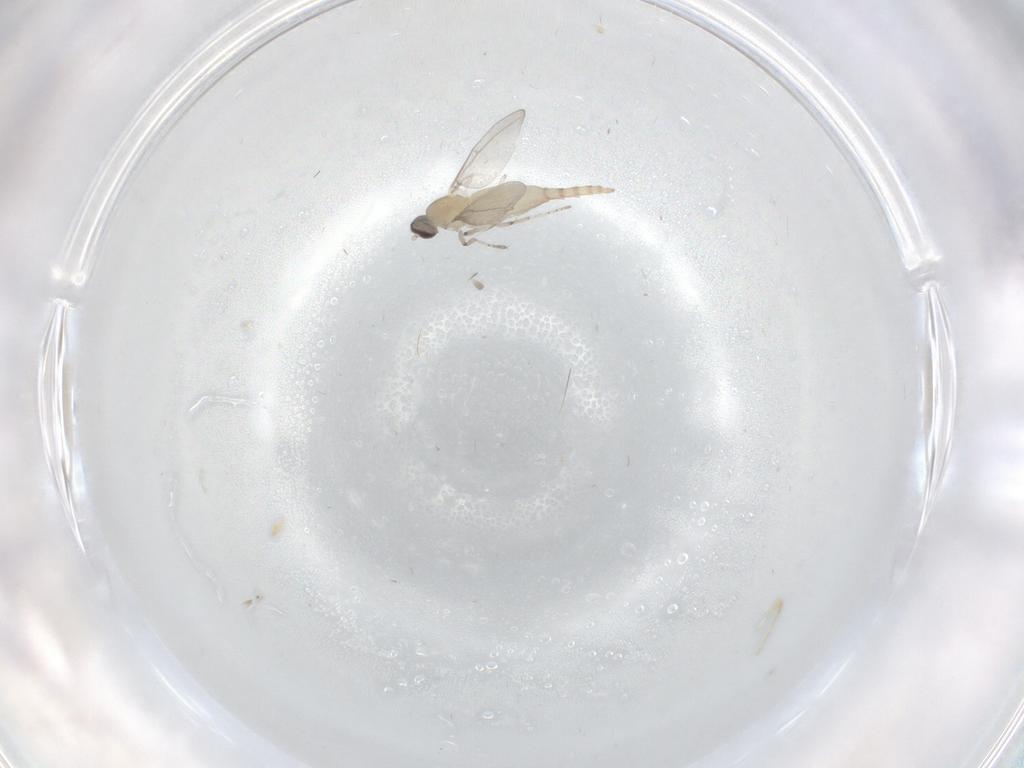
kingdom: Animalia
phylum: Arthropoda
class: Insecta
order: Diptera
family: Cecidomyiidae
